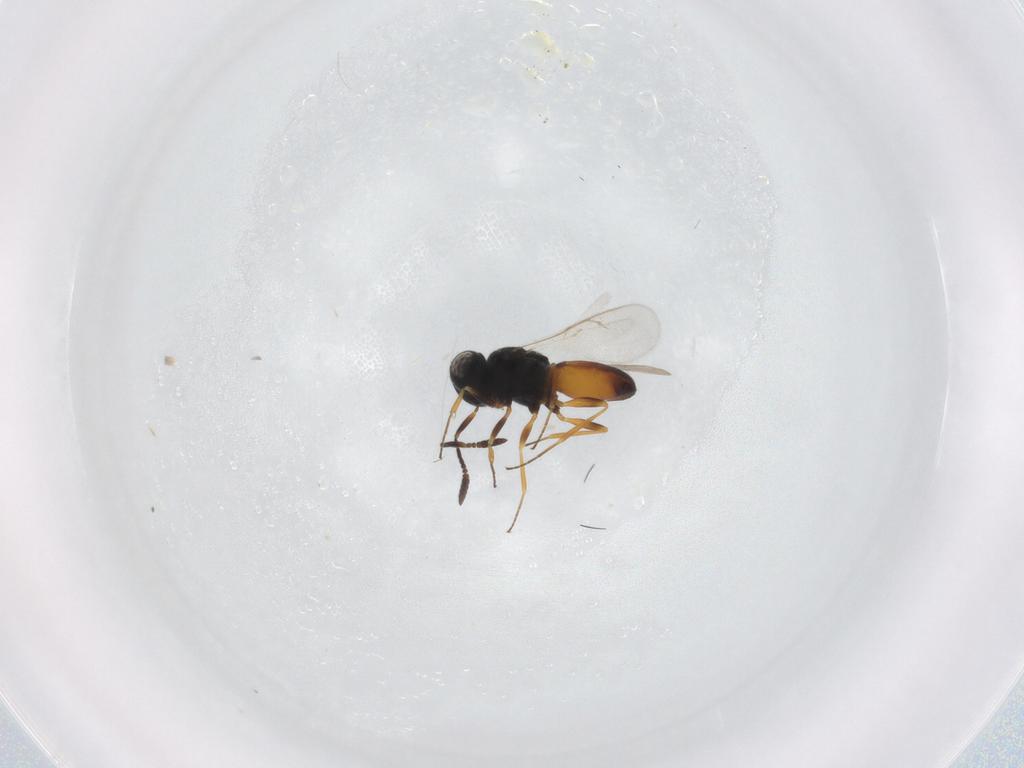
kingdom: Animalia
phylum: Arthropoda
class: Insecta
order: Hymenoptera
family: Scelionidae
